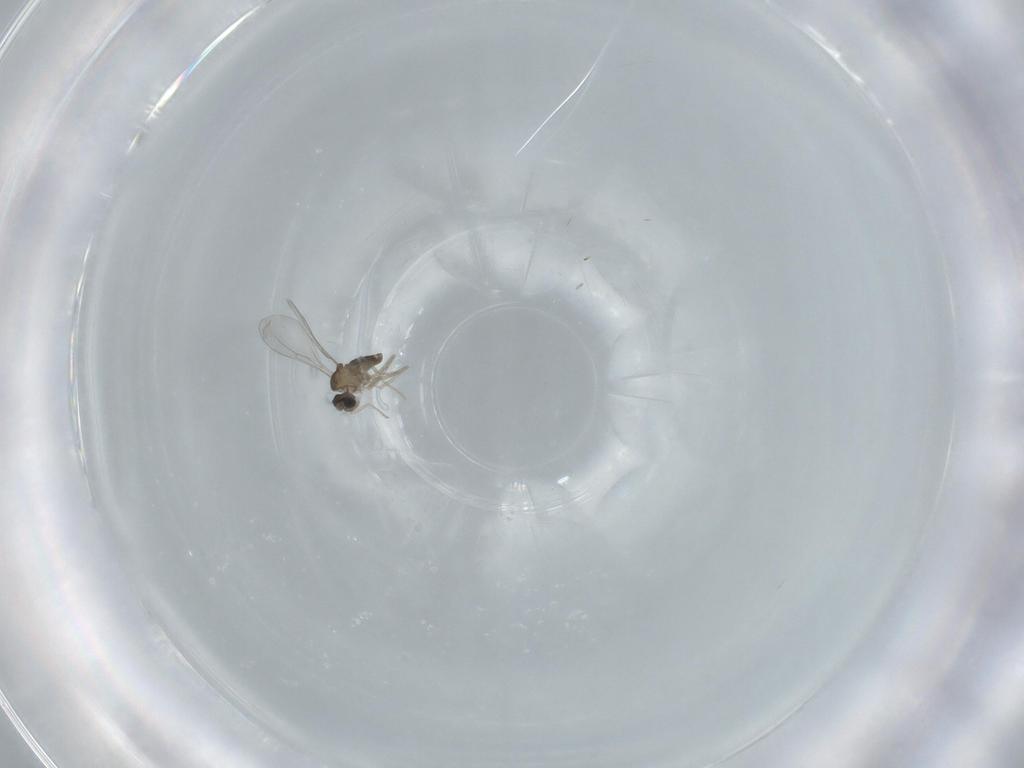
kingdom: Animalia
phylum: Arthropoda
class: Insecta
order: Diptera
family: Cecidomyiidae
